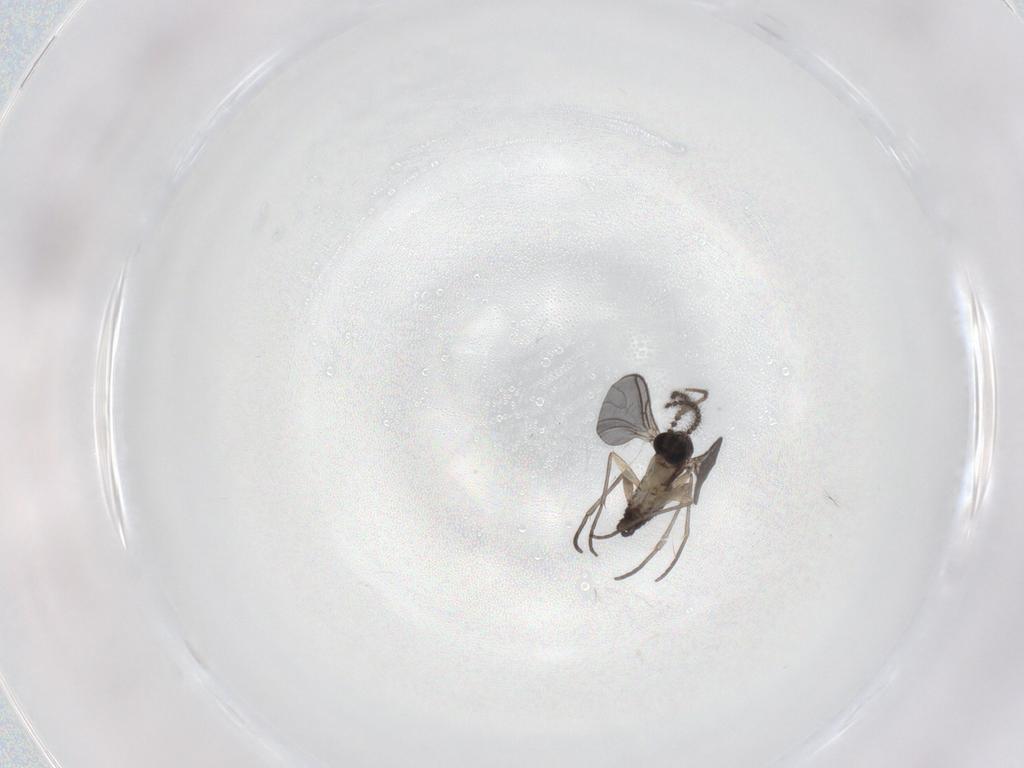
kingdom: Animalia
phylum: Arthropoda
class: Insecta
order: Diptera
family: Sciaridae
